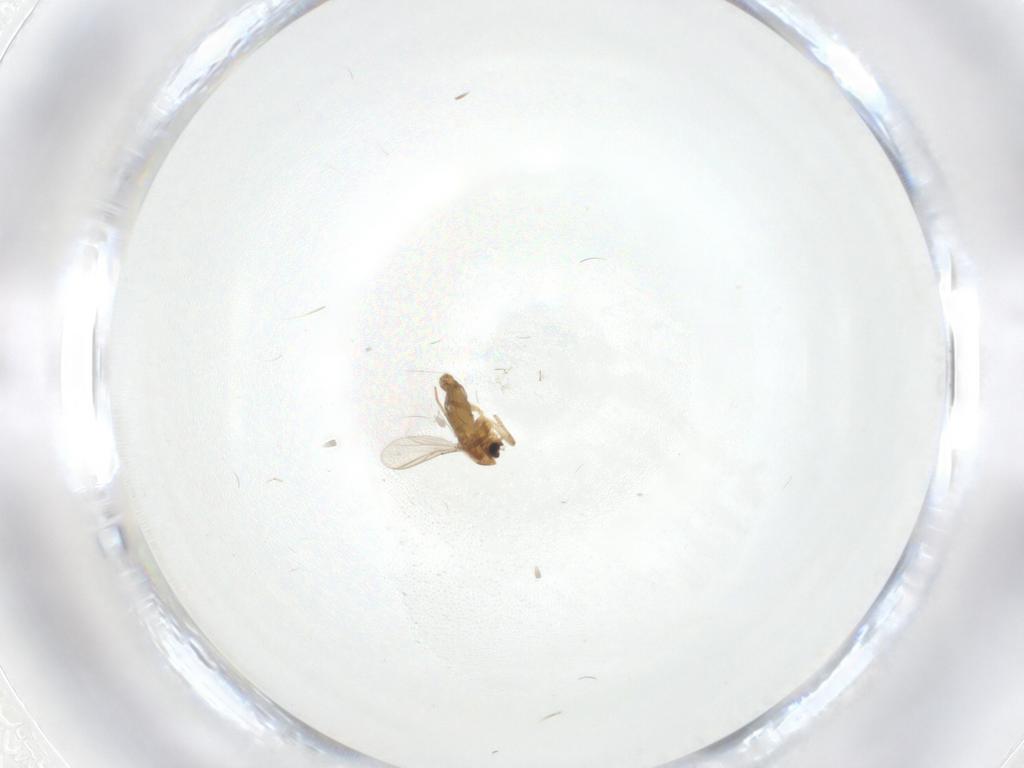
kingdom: Animalia
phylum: Arthropoda
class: Insecta
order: Diptera
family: Chironomidae
